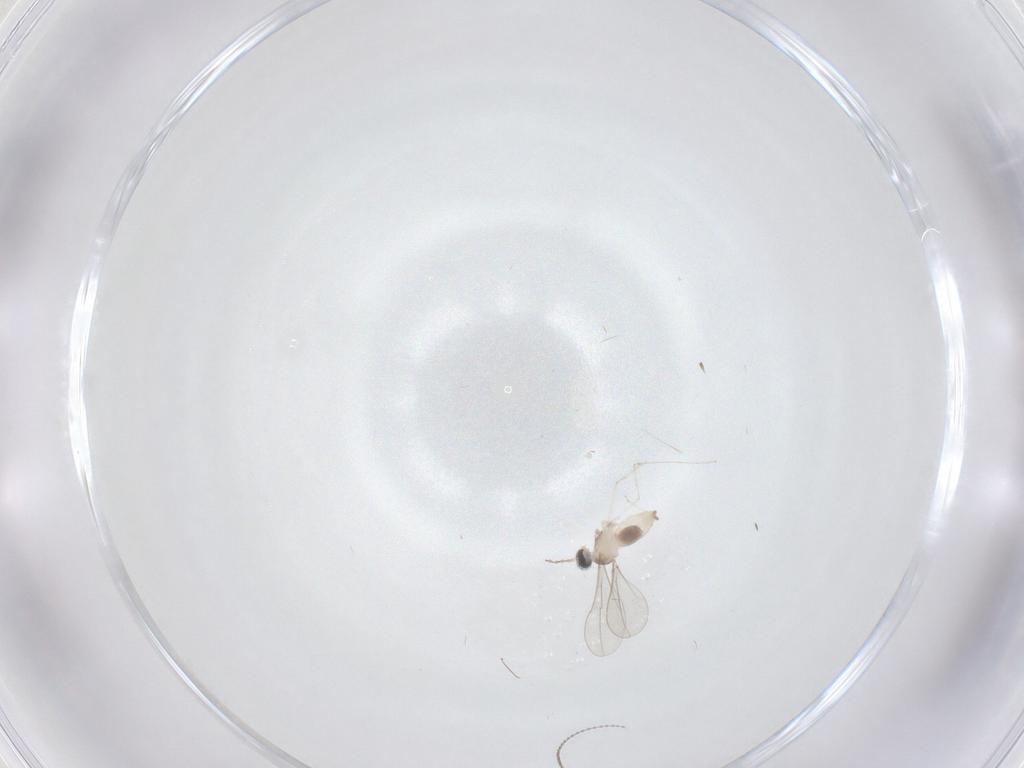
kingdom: Animalia
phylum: Arthropoda
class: Insecta
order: Diptera
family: Cecidomyiidae
